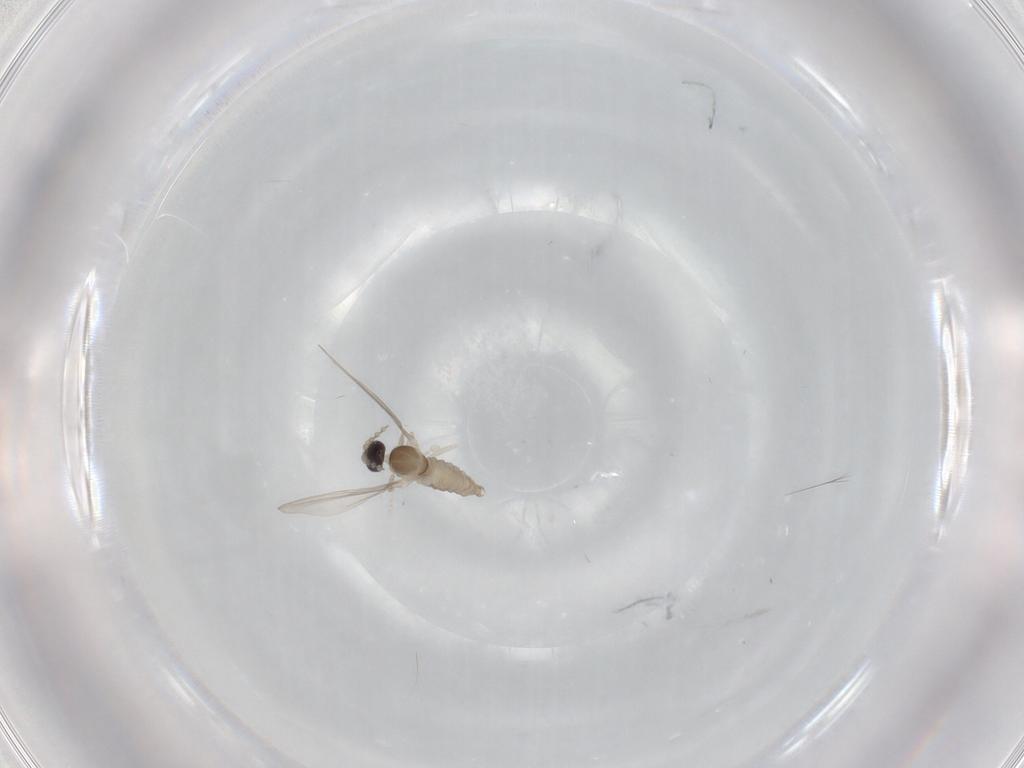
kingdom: Animalia
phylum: Arthropoda
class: Insecta
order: Diptera
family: Cecidomyiidae
